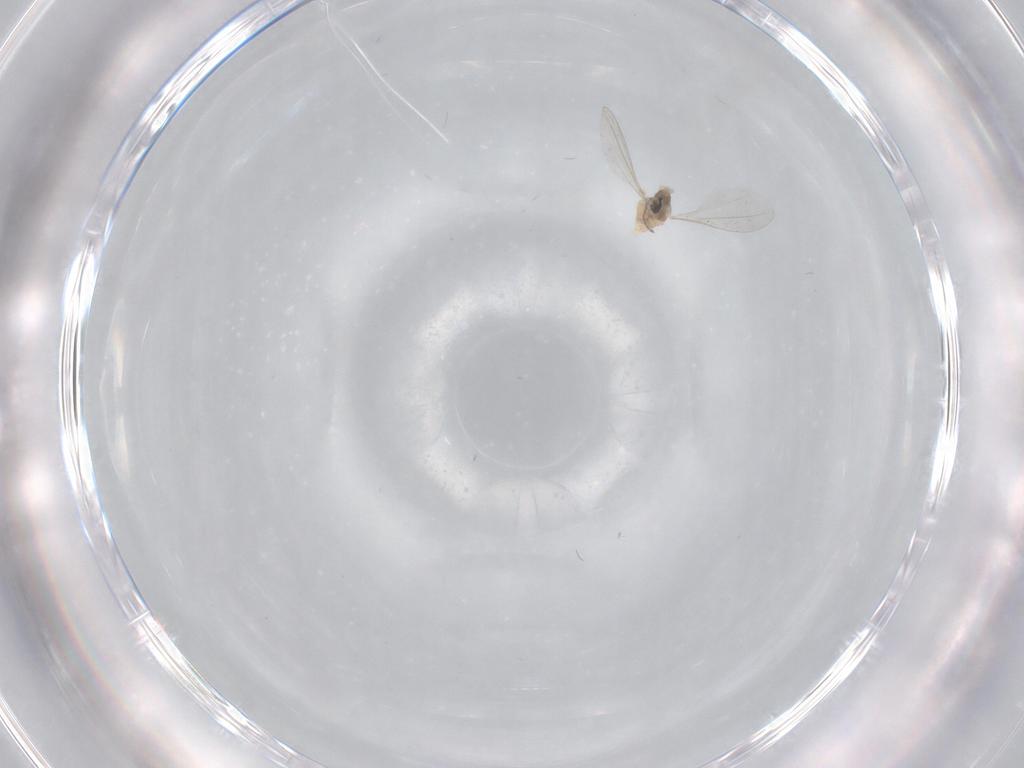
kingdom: Animalia
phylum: Arthropoda
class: Insecta
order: Diptera
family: Cecidomyiidae
